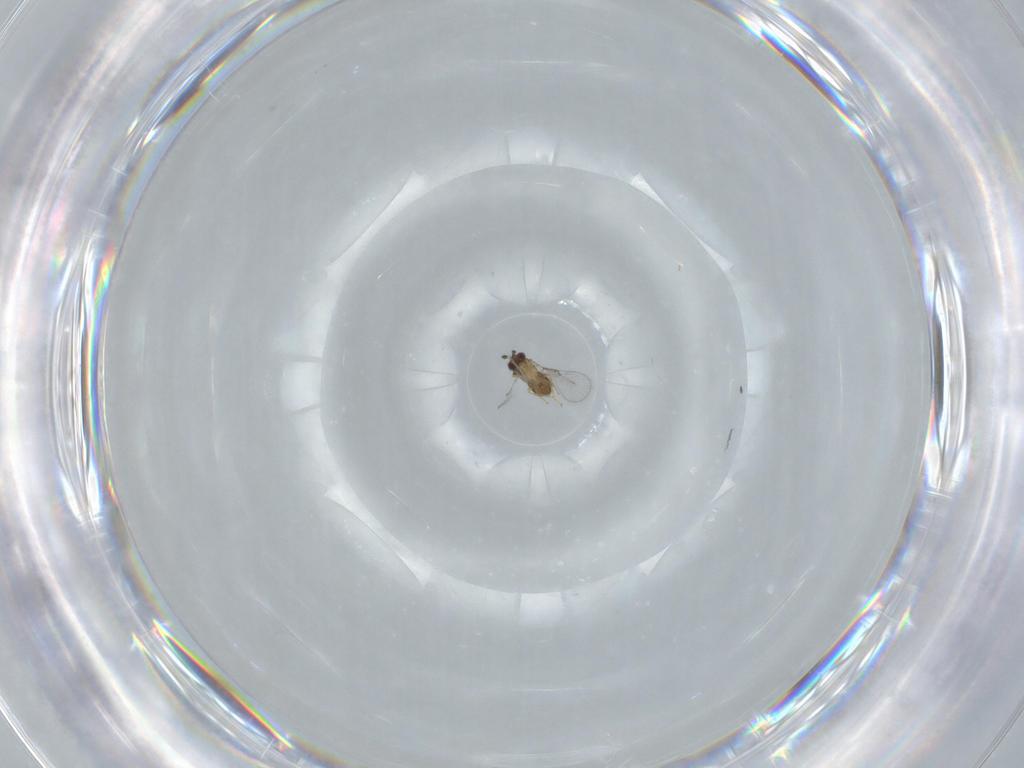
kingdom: Animalia
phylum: Arthropoda
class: Insecta
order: Hymenoptera
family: Trichogrammatidae
